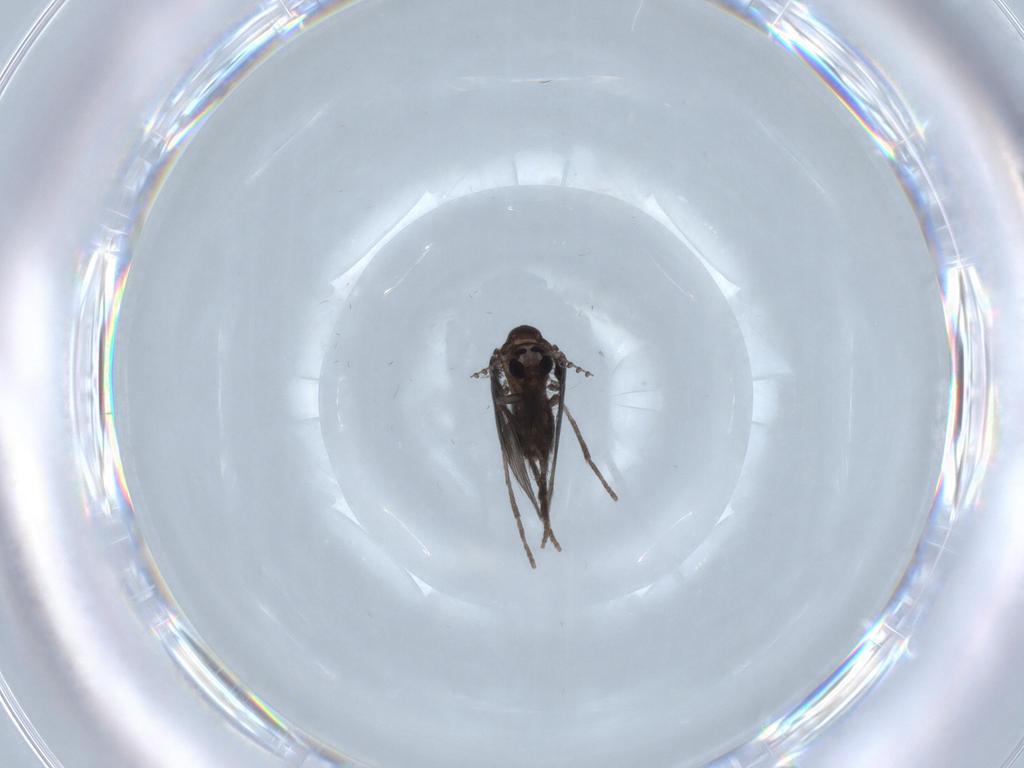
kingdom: Animalia
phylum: Arthropoda
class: Insecta
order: Diptera
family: Psychodidae
